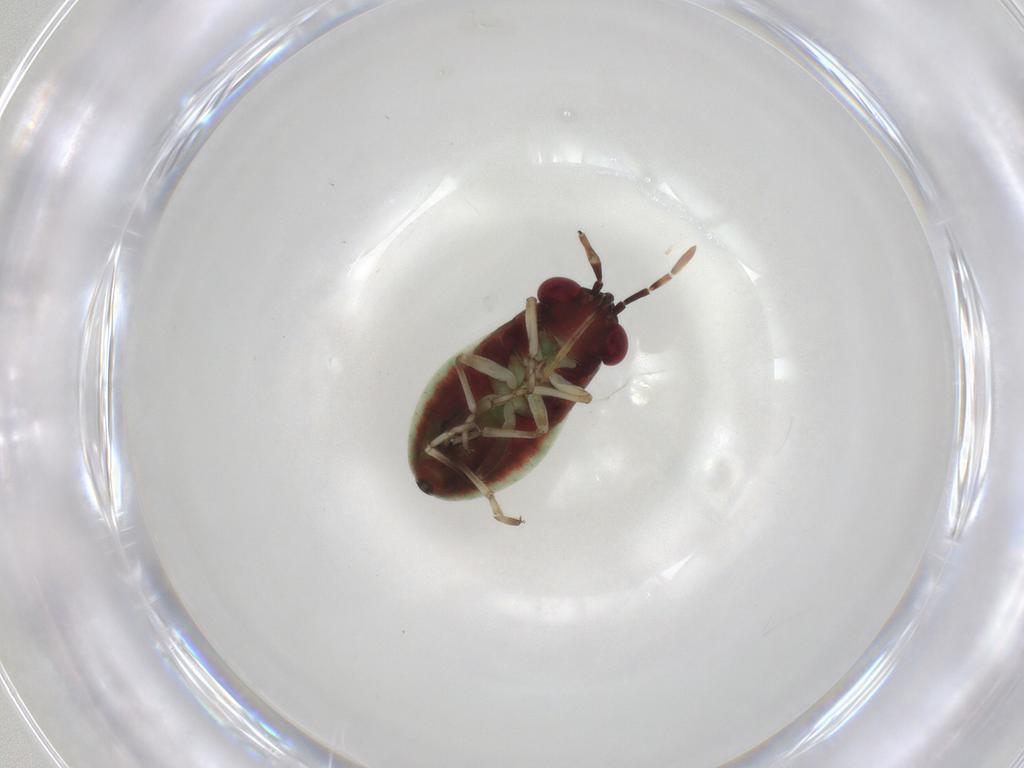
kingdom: Animalia
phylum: Arthropoda
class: Insecta
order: Hemiptera
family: Geocoridae
